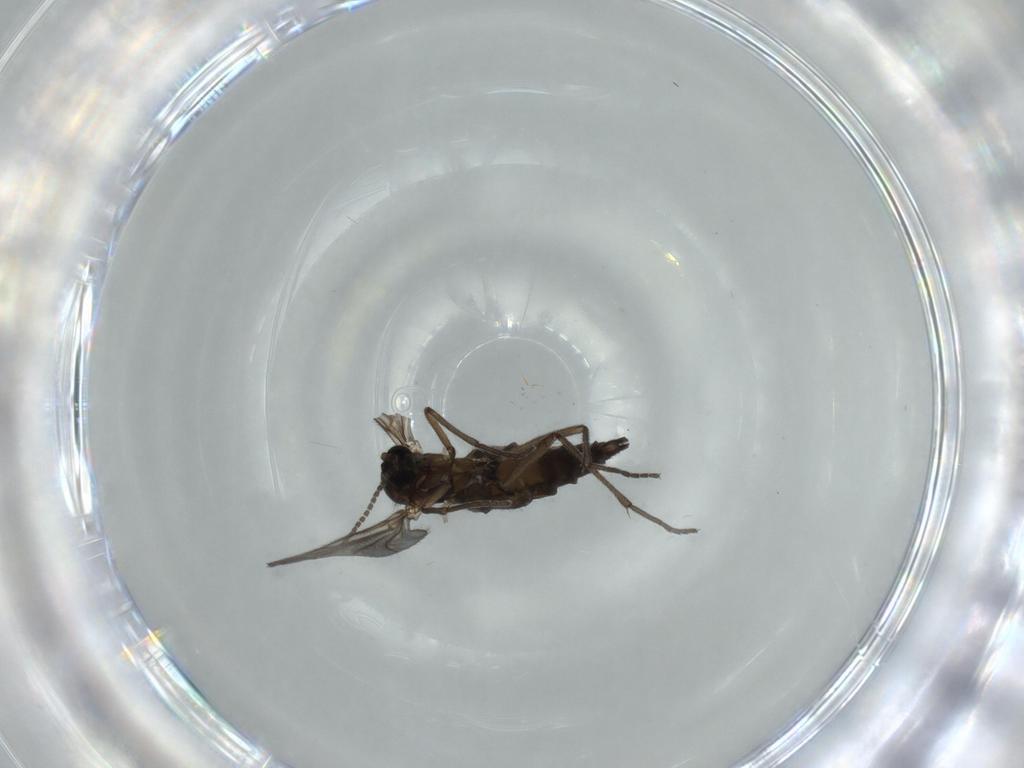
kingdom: Animalia
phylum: Arthropoda
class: Insecta
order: Diptera
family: Sciaridae
